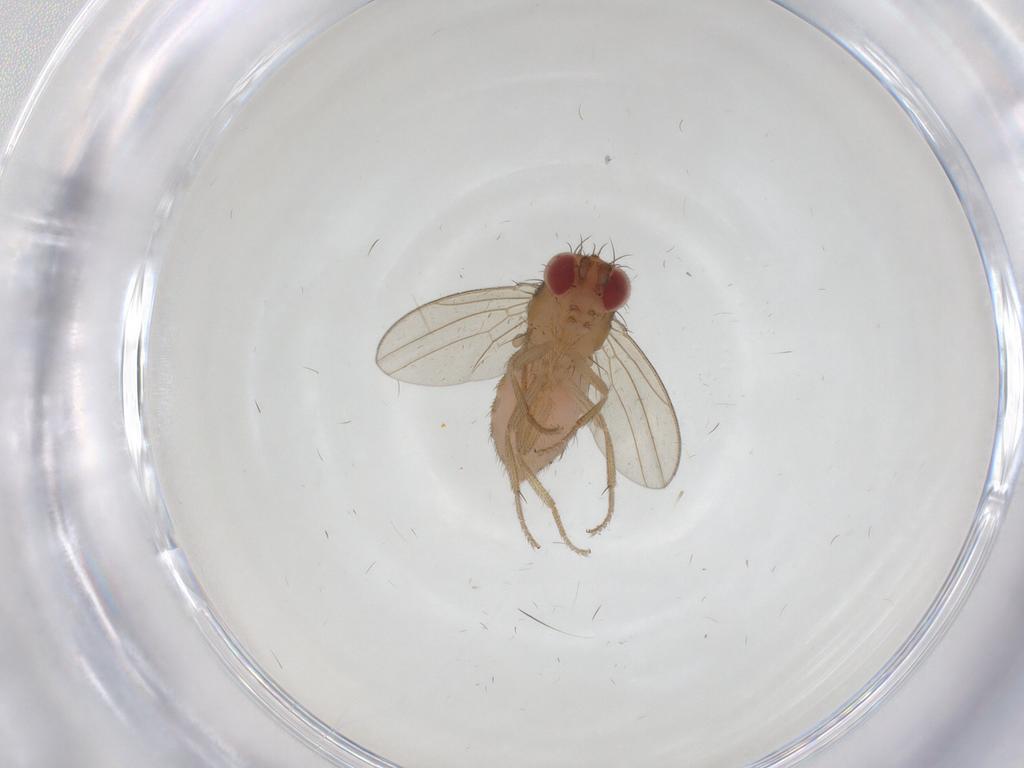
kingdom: Animalia
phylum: Arthropoda
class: Insecta
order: Diptera
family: Drosophilidae
